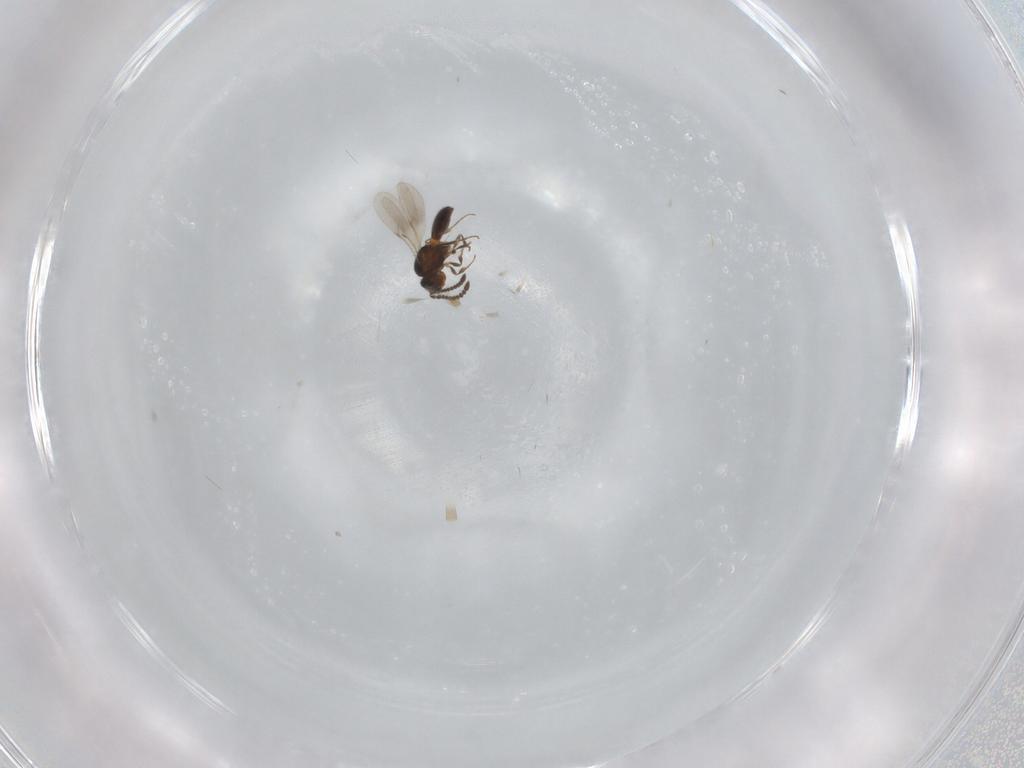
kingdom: Animalia
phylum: Arthropoda
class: Insecta
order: Hymenoptera
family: Scelionidae
